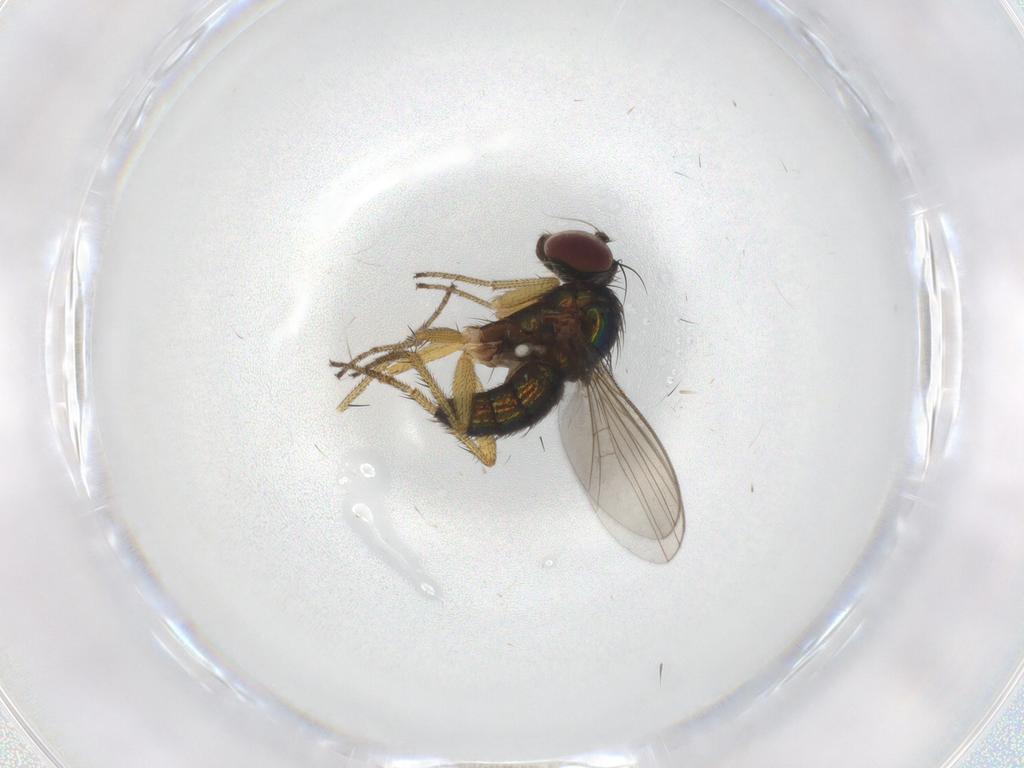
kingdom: Animalia
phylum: Arthropoda
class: Insecta
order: Diptera
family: Dolichopodidae
